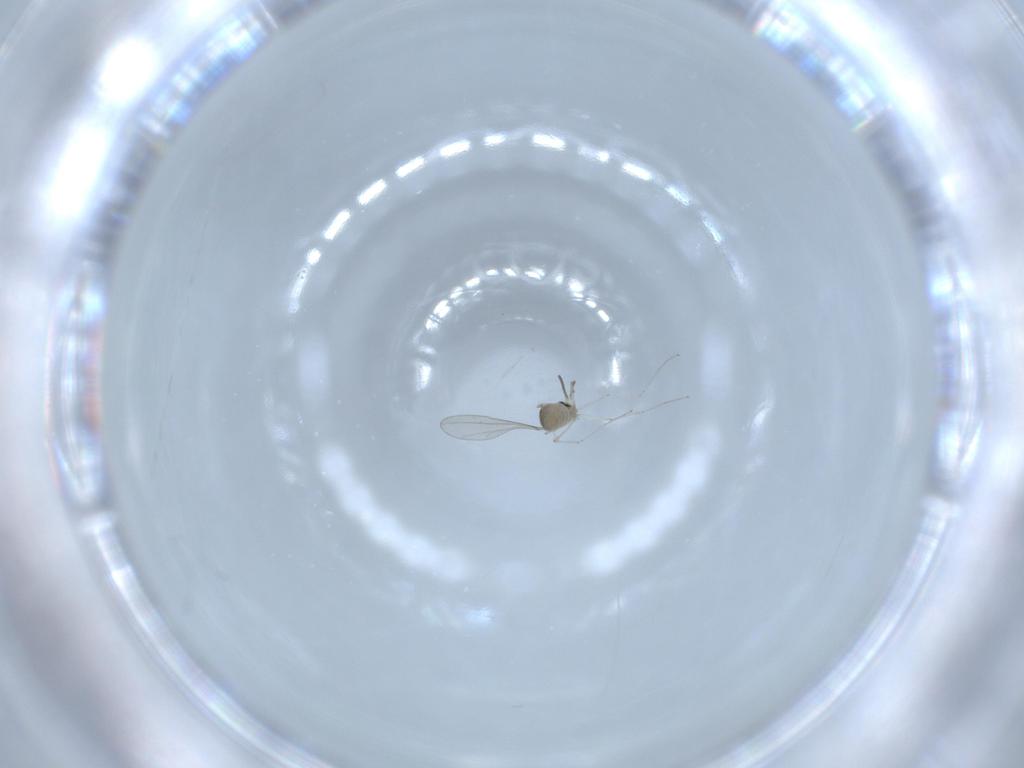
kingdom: Animalia
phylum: Arthropoda
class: Insecta
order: Diptera
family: Cecidomyiidae
